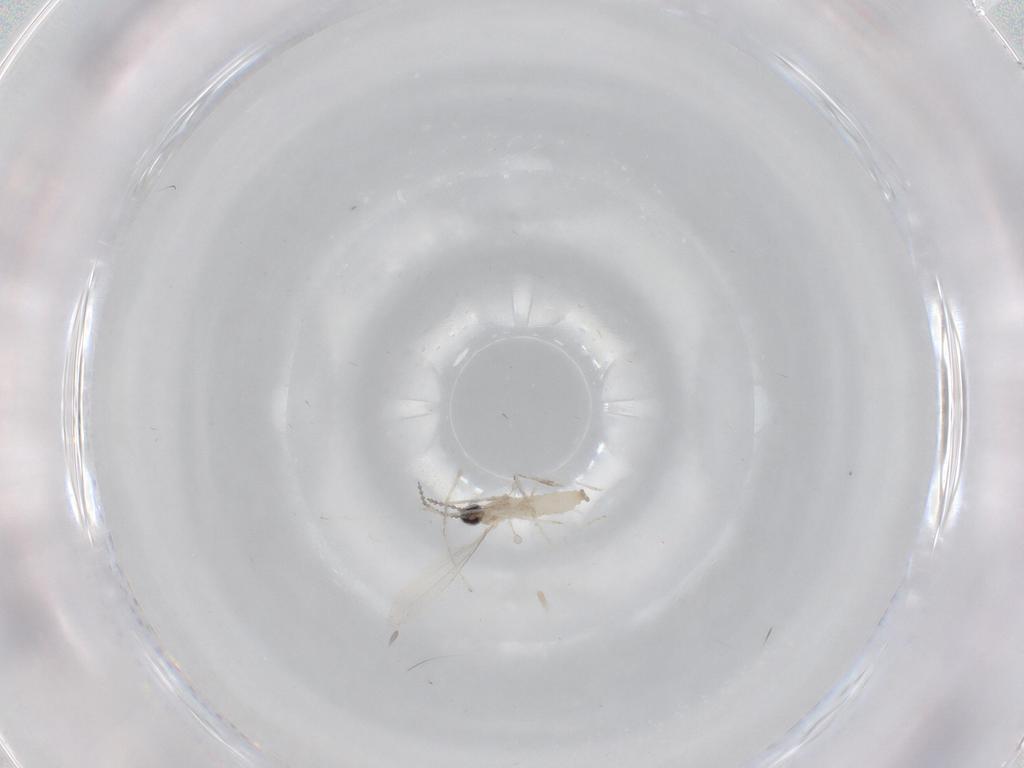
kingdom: Animalia
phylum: Arthropoda
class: Insecta
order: Diptera
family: Cecidomyiidae
